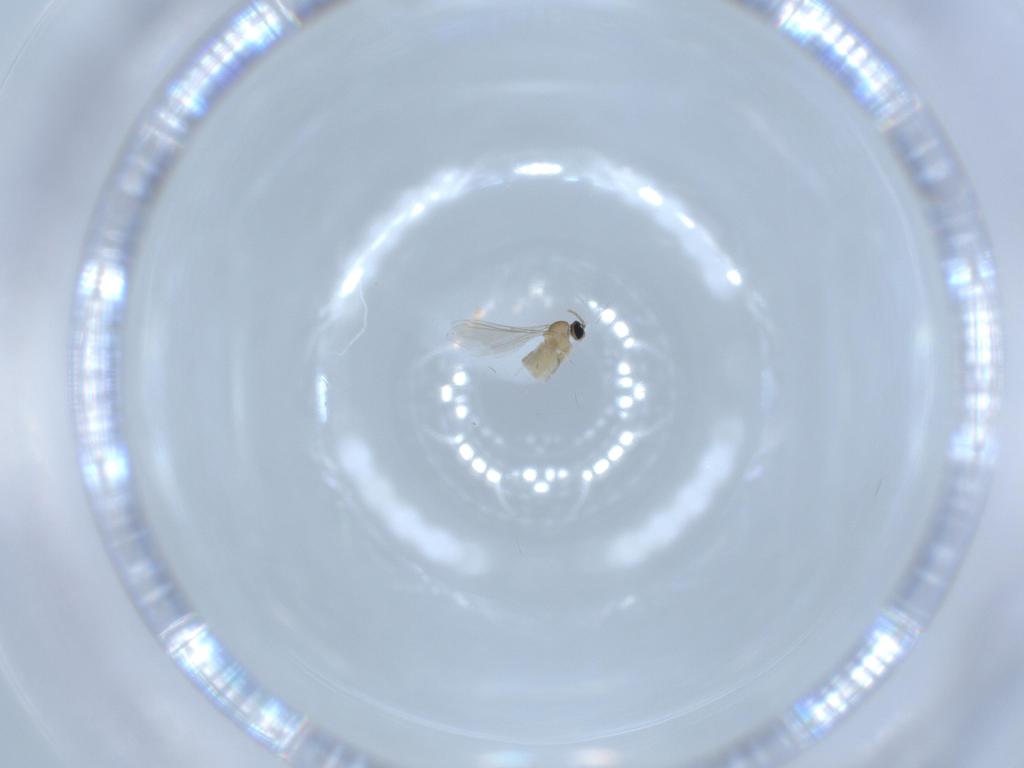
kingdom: Animalia
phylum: Arthropoda
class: Insecta
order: Diptera
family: Cecidomyiidae
